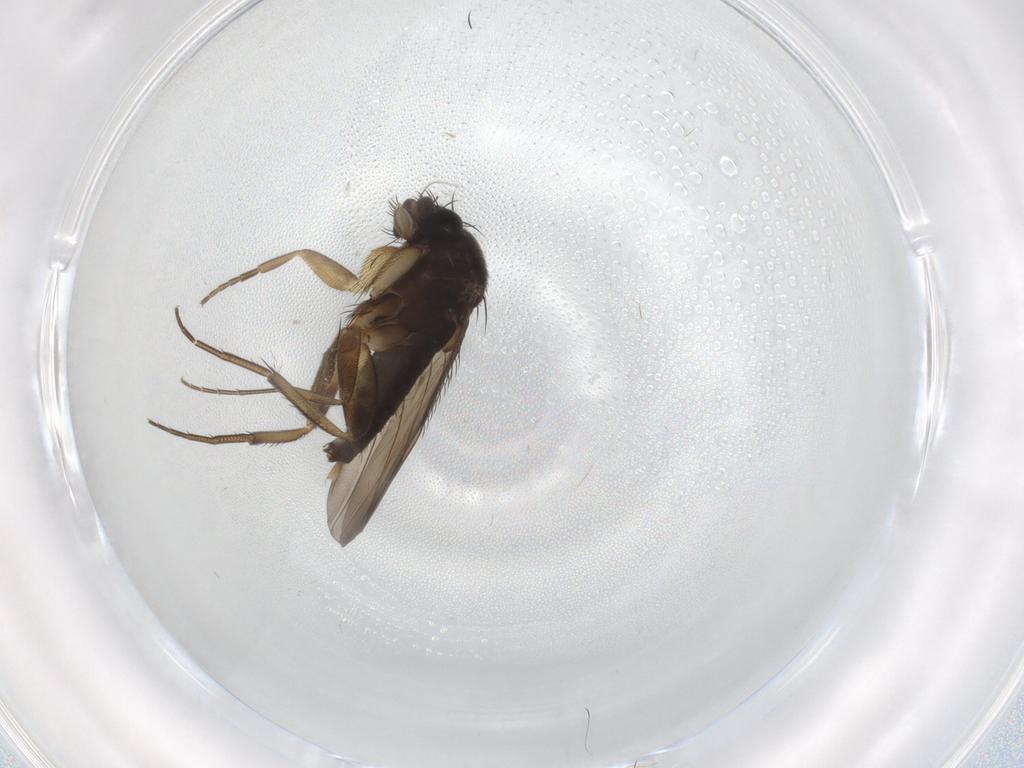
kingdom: Animalia
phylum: Arthropoda
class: Insecta
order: Diptera
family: Phoridae
